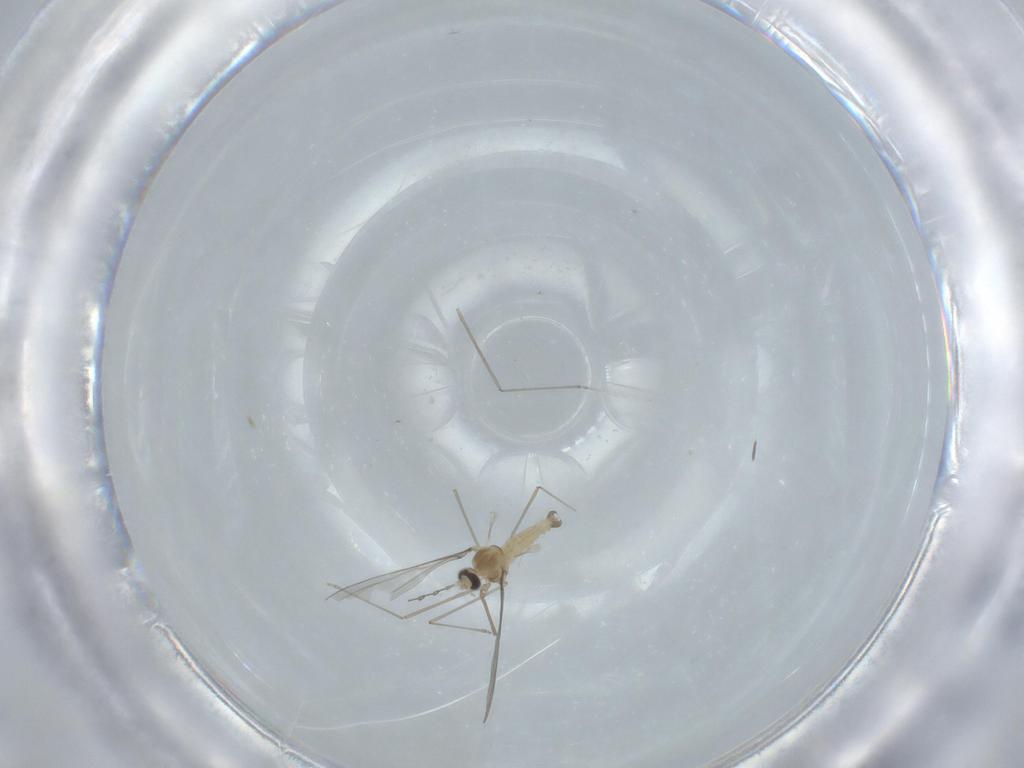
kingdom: Animalia
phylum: Arthropoda
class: Insecta
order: Diptera
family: Cecidomyiidae
